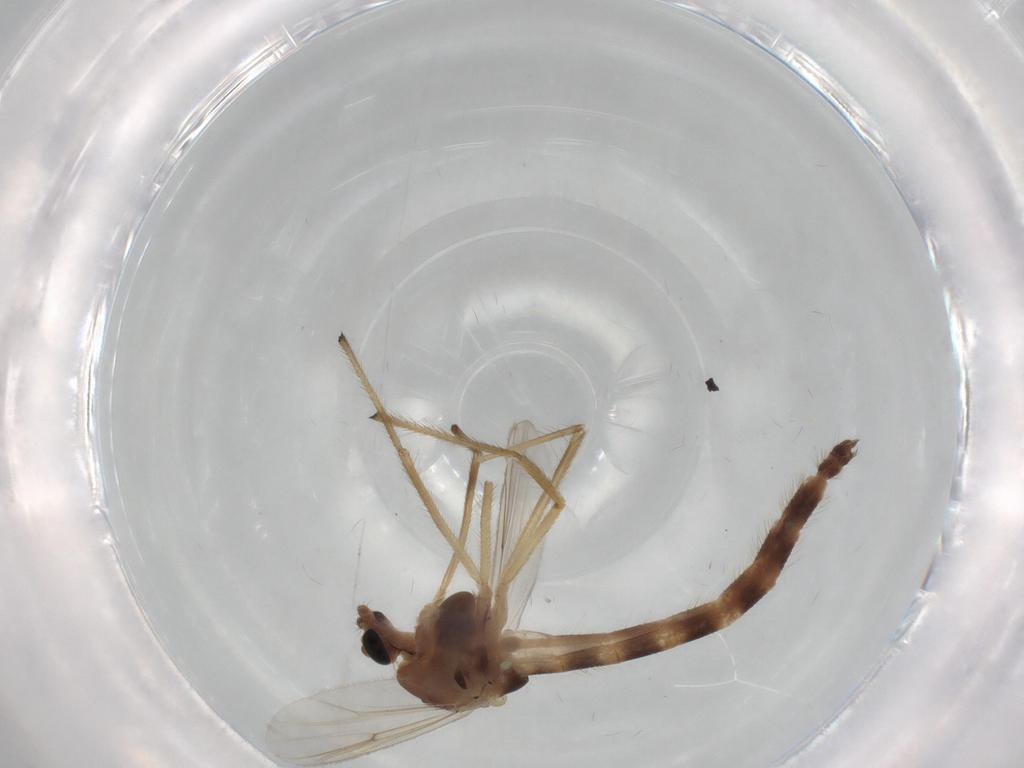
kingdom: Animalia
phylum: Arthropoda
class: Insecta
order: Diptera
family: Chironomidae
